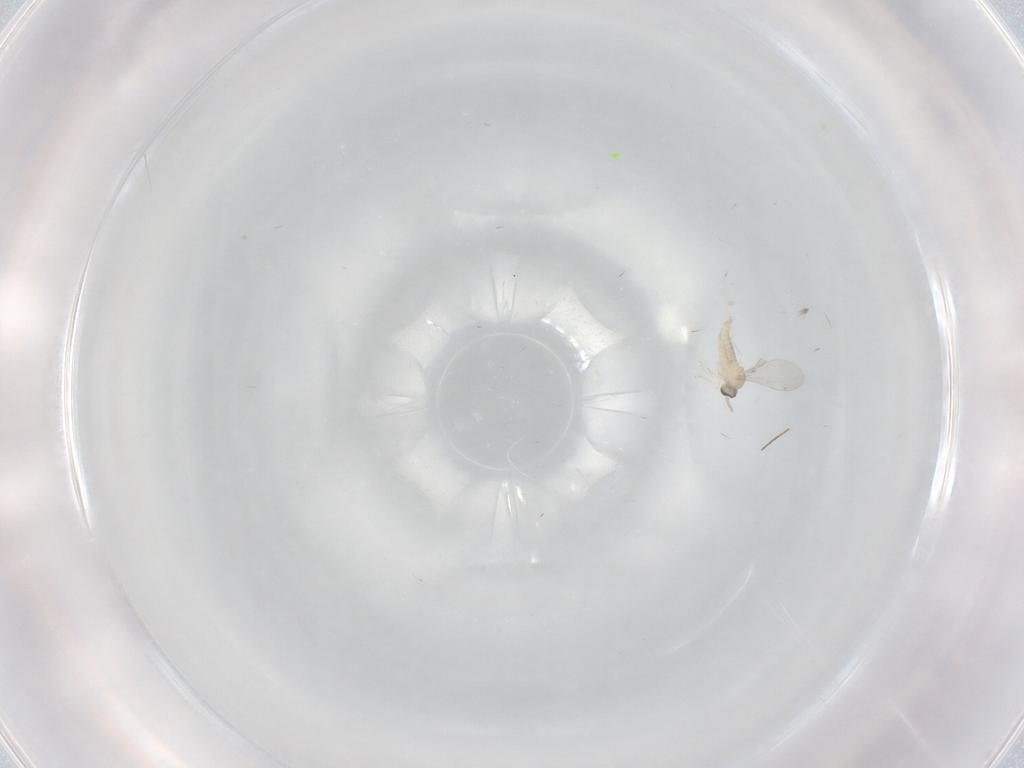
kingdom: Animalia
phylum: Arthropoda
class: Insecta
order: Diptera
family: Cecidomyiidae
